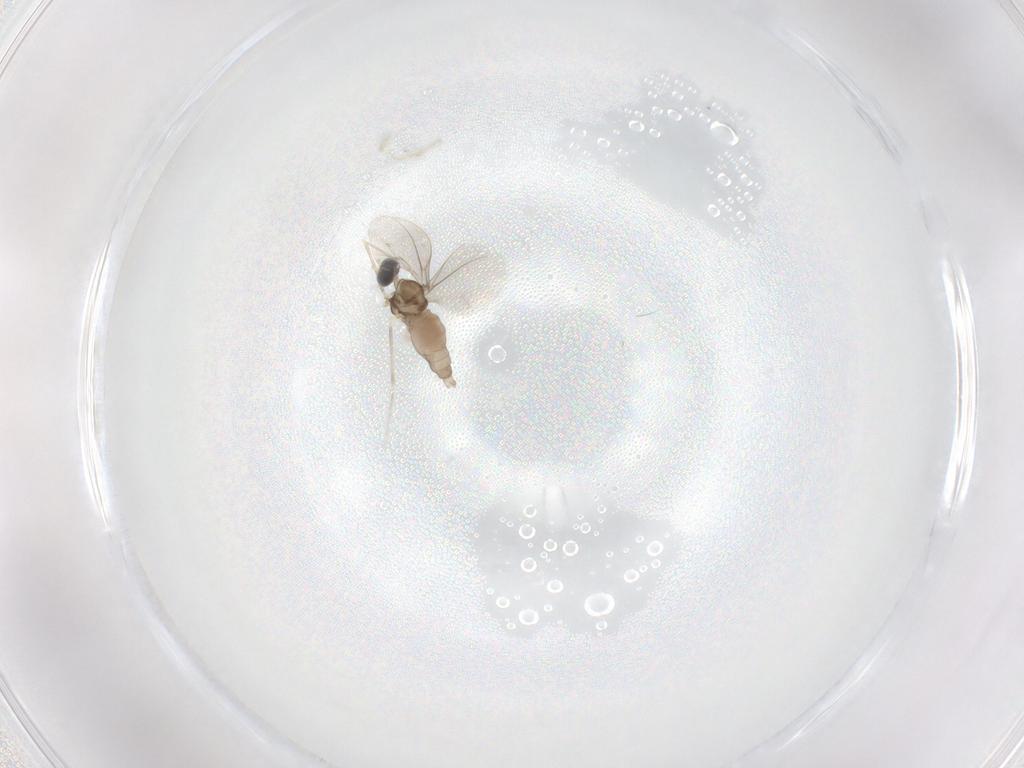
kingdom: Animalia
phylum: Arthropoda
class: Insecta
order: Diptera
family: Cecidomyiidae
